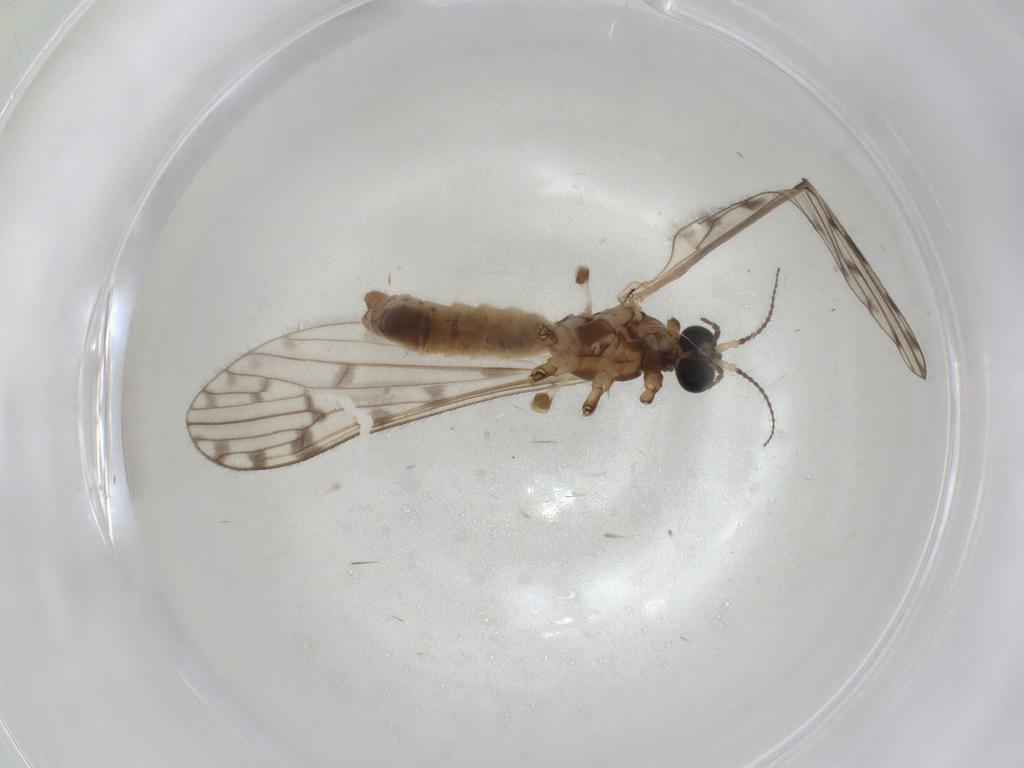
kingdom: Animalia
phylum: Arthropoda
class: Insecta
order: Diptera
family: Limoniidae
